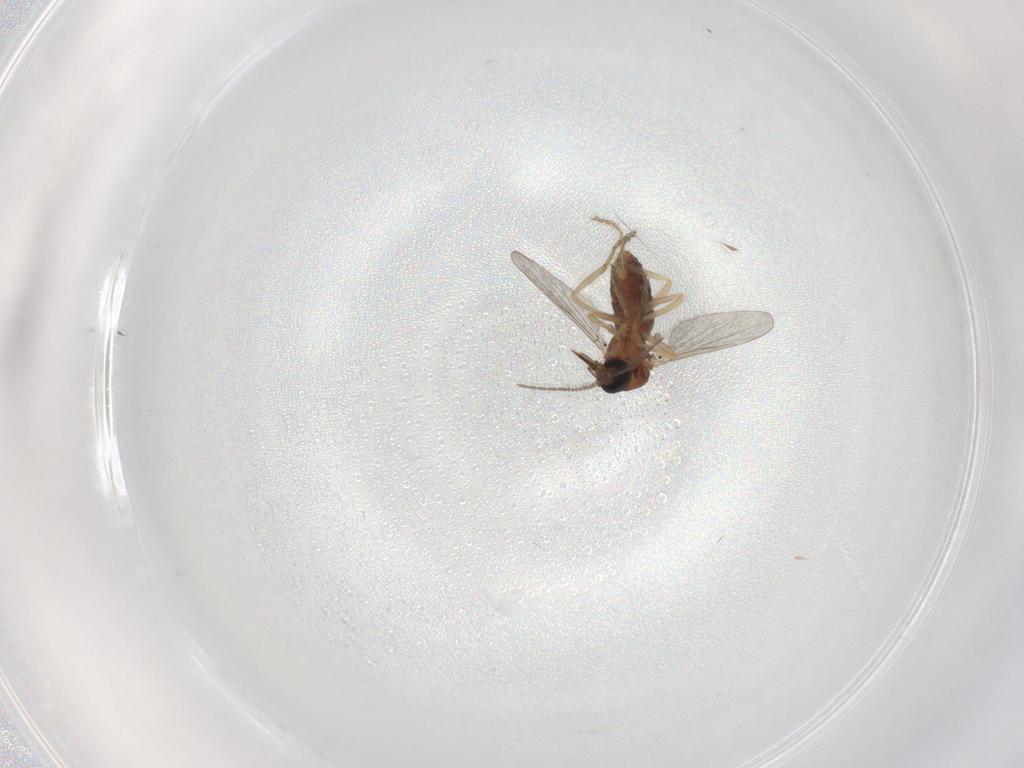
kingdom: Animalia
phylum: Arthropoda
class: Insecta
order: Diptera
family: Ceratopogonidae
